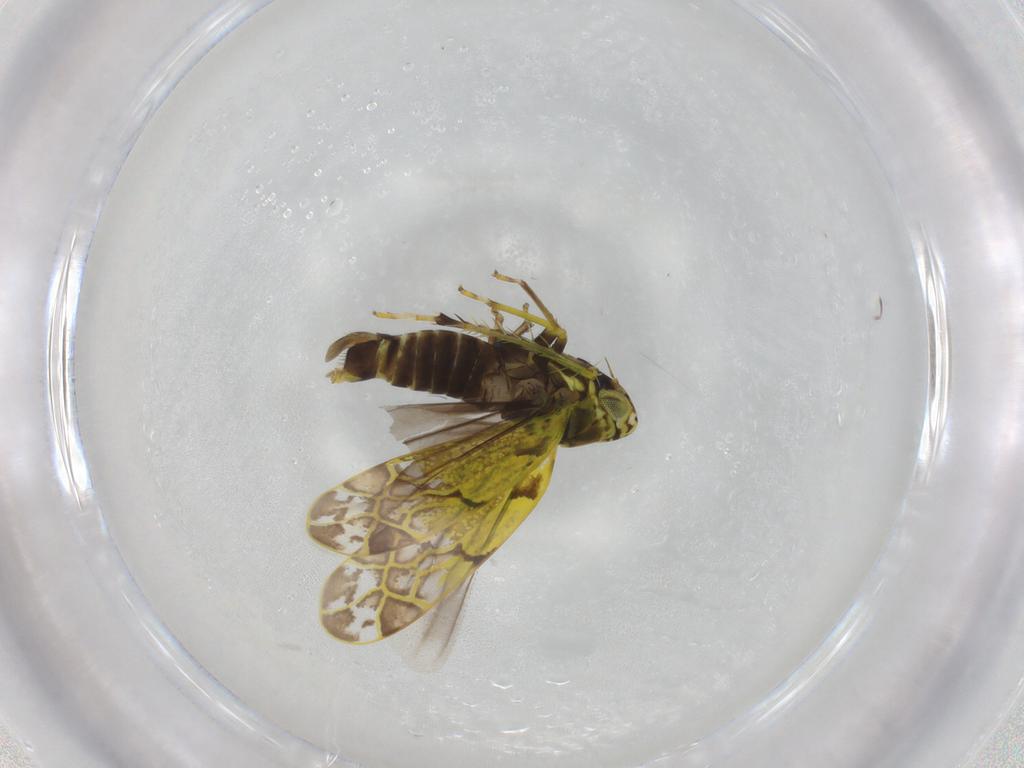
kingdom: Animalia
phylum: Arthropoda
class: Insecta
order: Hemiptera
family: Cicadellidae
